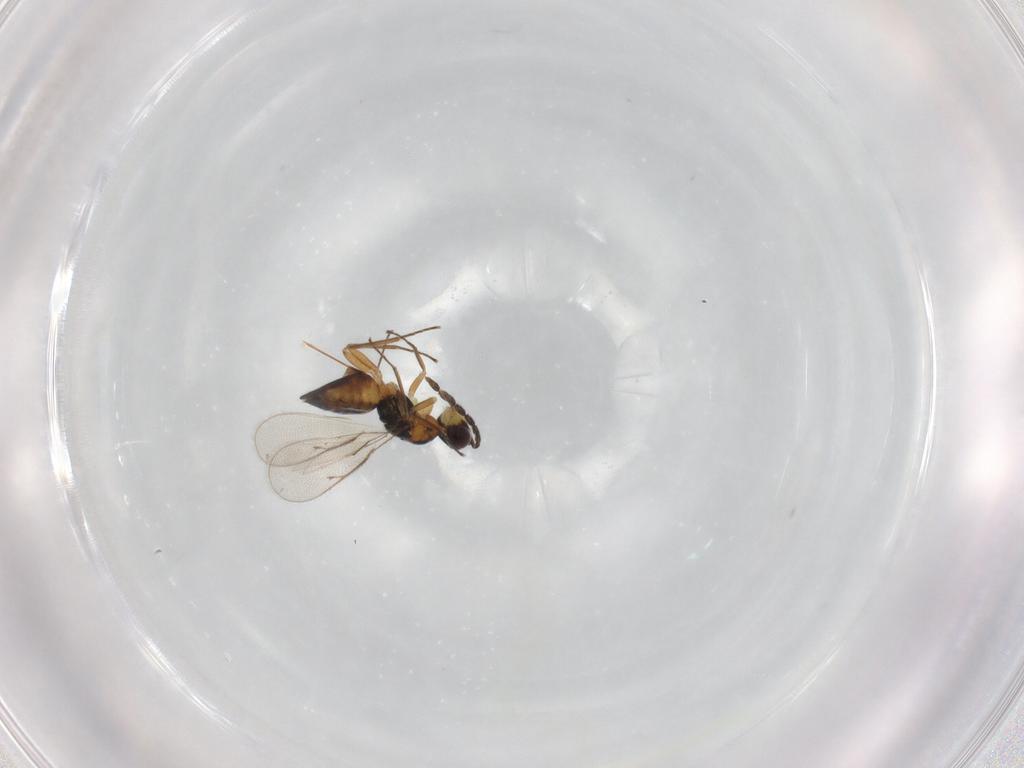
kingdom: Animalia
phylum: Arthropoda
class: Insecta
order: Hymenoptera
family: Eulophidae
